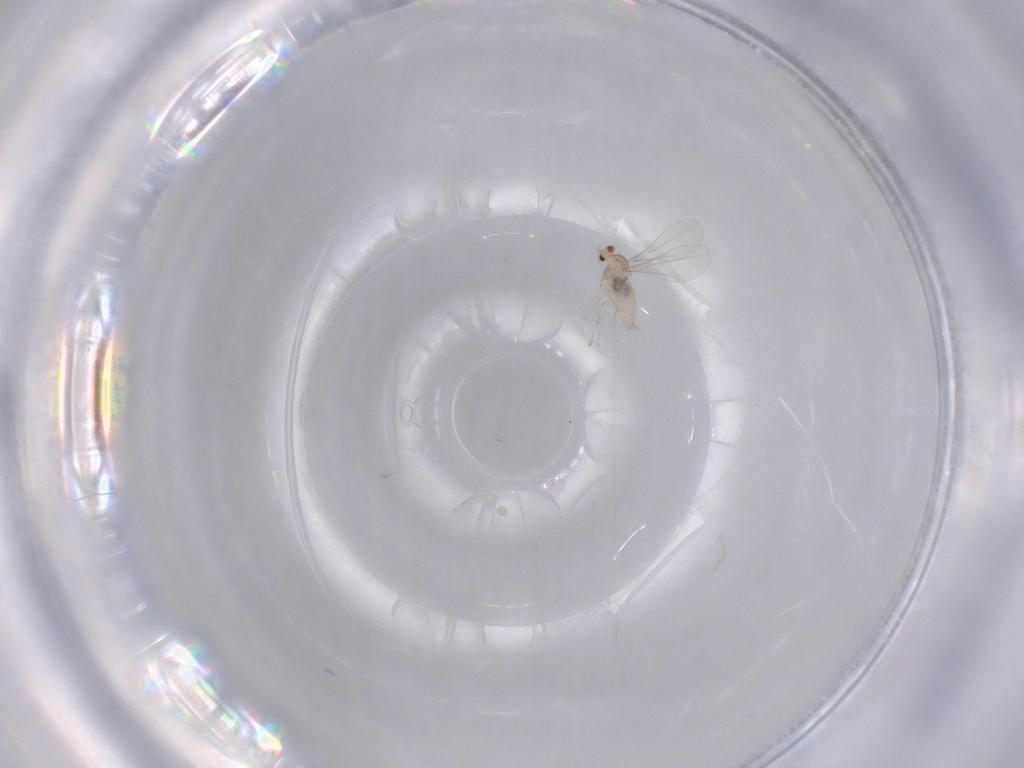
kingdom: Animalia
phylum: Arthropoda
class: Insecta
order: Diptera
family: Cecidomyiidae
